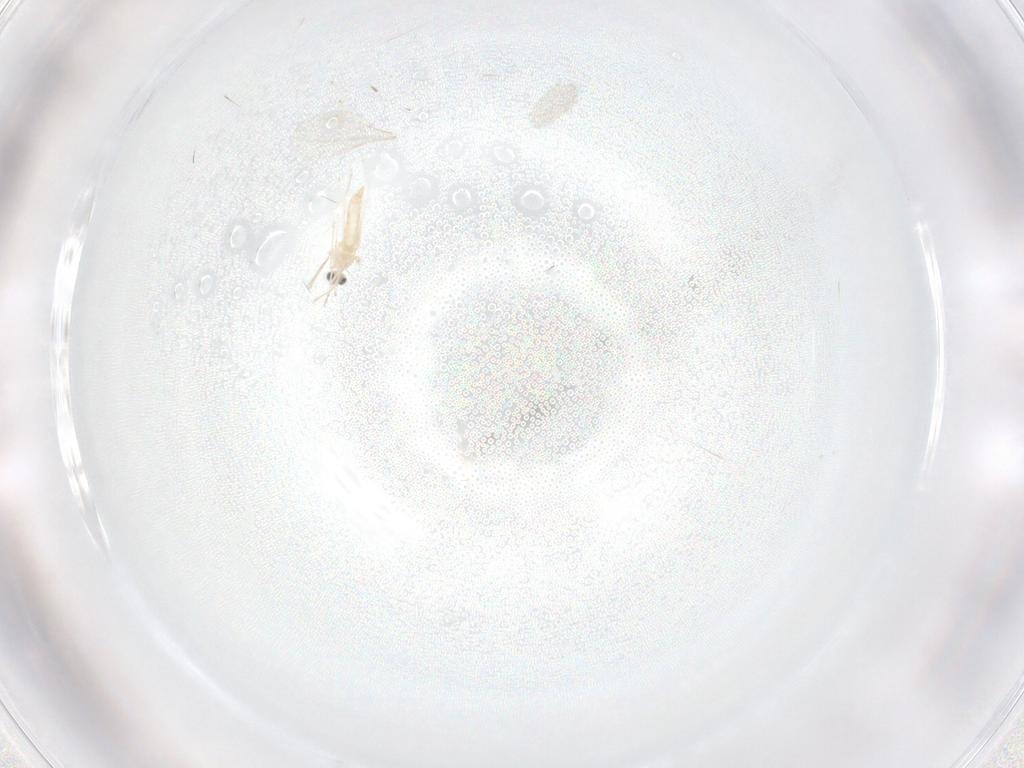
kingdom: Animalia
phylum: Arthropoda
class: Insecta
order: Diptera
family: Cecidomyiidae
